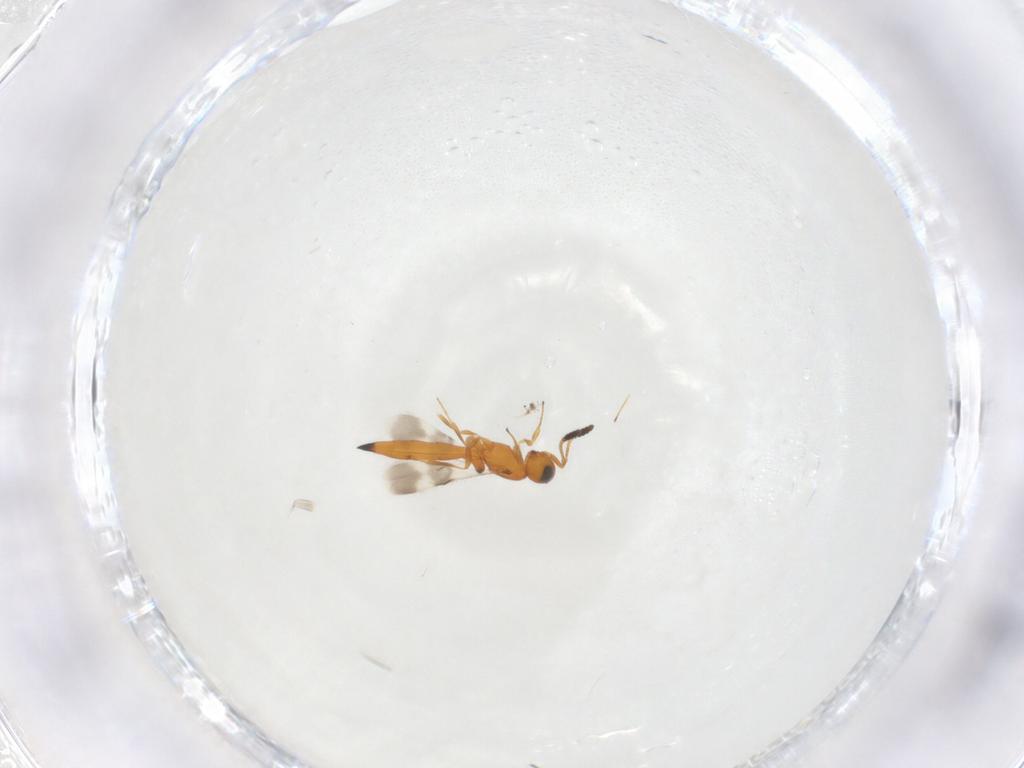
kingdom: Animalia
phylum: Arthropoda
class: Insecta
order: Hymenoptera
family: Scelionidae
